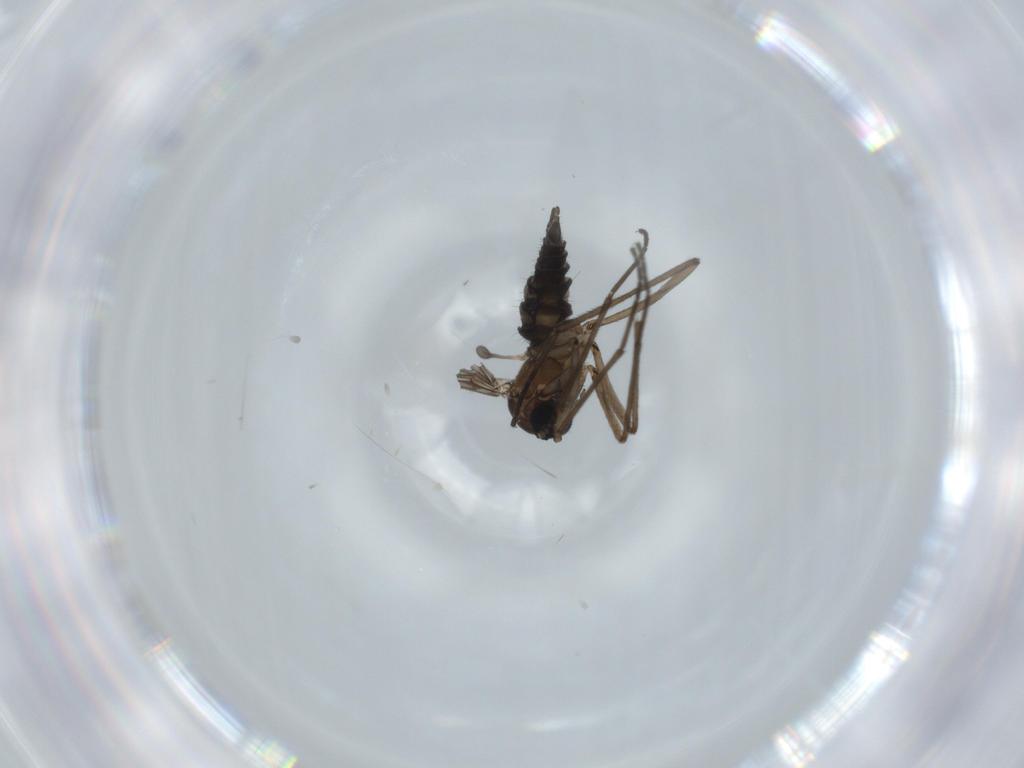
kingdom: Animalia
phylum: Arthropoda
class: Insecta
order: Diptera
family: Sciaridae
